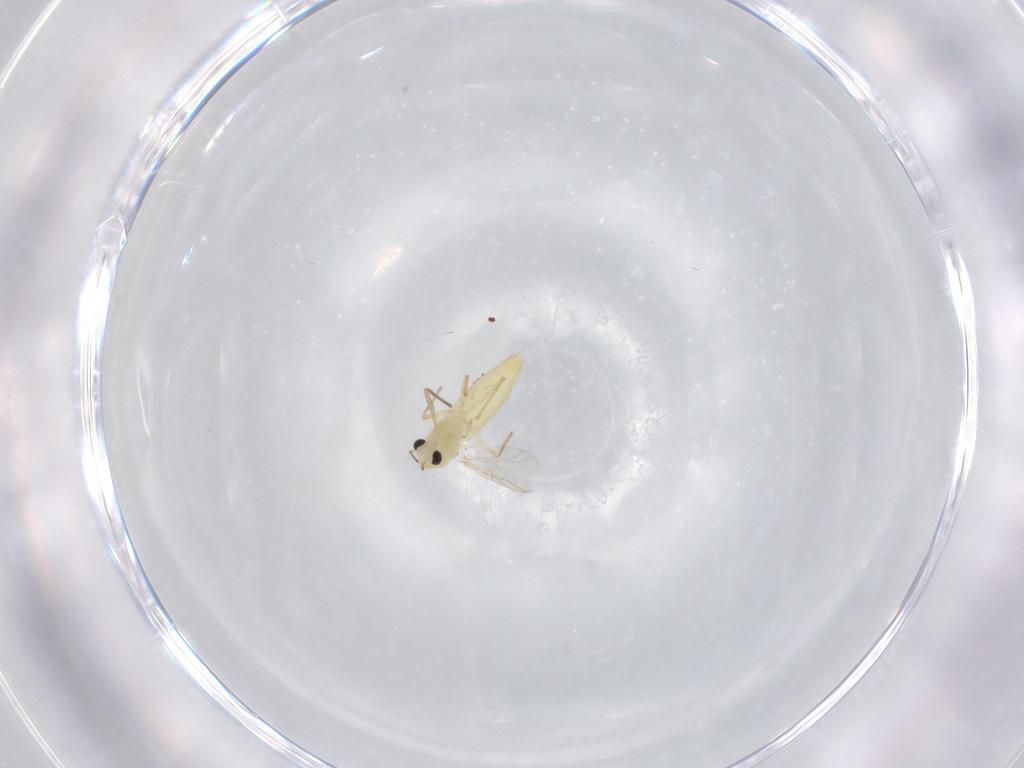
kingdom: Animalia
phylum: Arthropoda
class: Insecta
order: Diptera
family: Chironomidae
